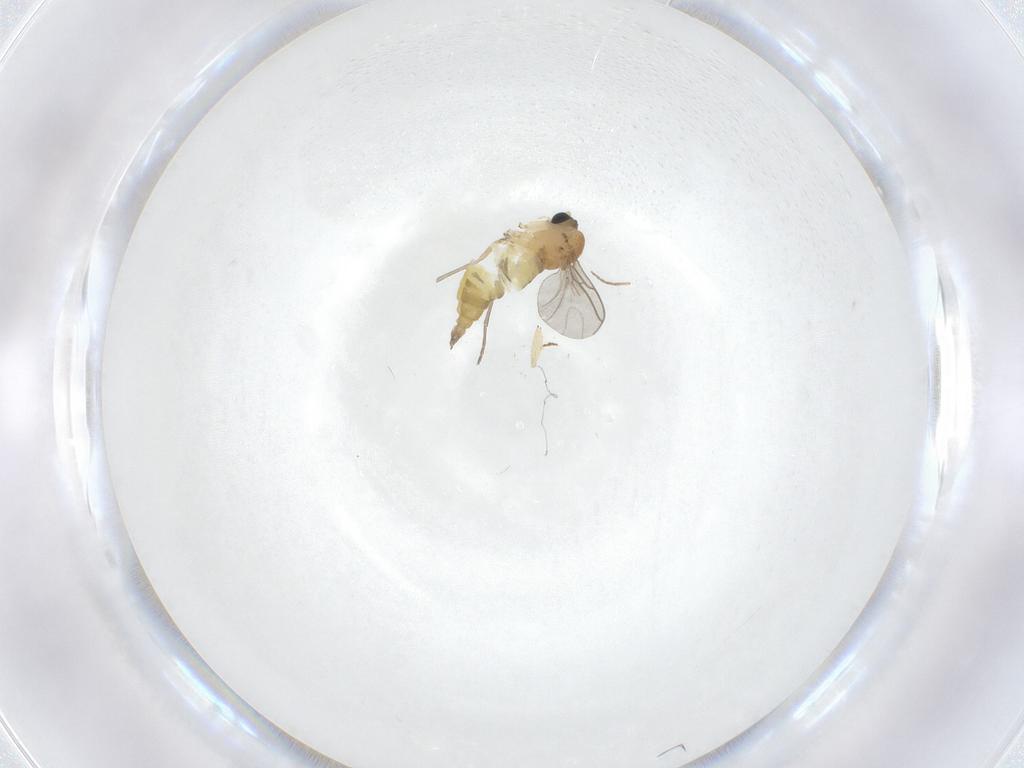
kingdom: Animalia
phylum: Arthropoda
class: Insecta
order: Diptera
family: Sciaridae
